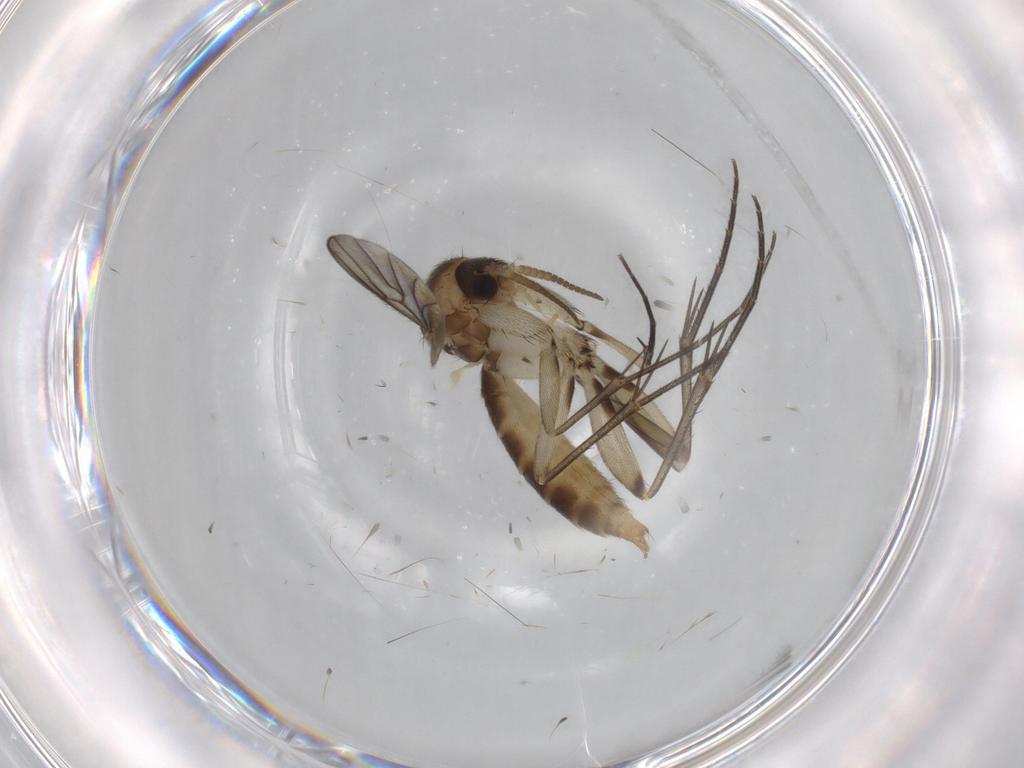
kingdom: Animalia
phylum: Arthropoda
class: Insecta
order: Diptera
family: Mycetophilidae
